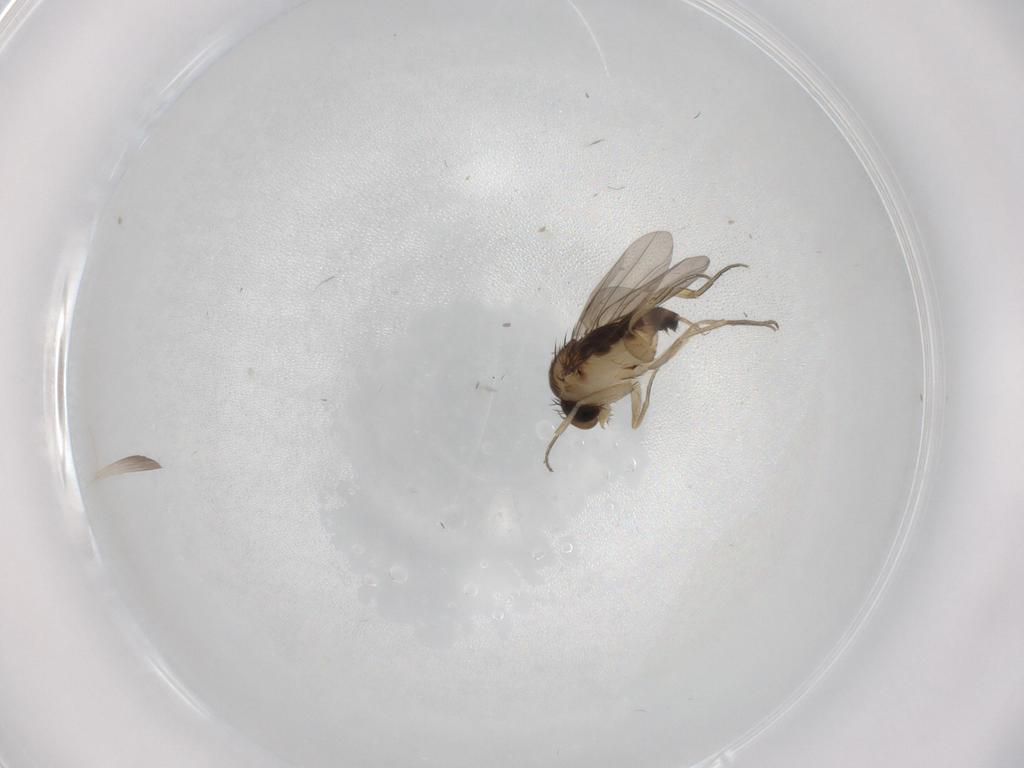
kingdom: Animalia
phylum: Arthropoda
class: Insecta
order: Diptera
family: Phoridae
